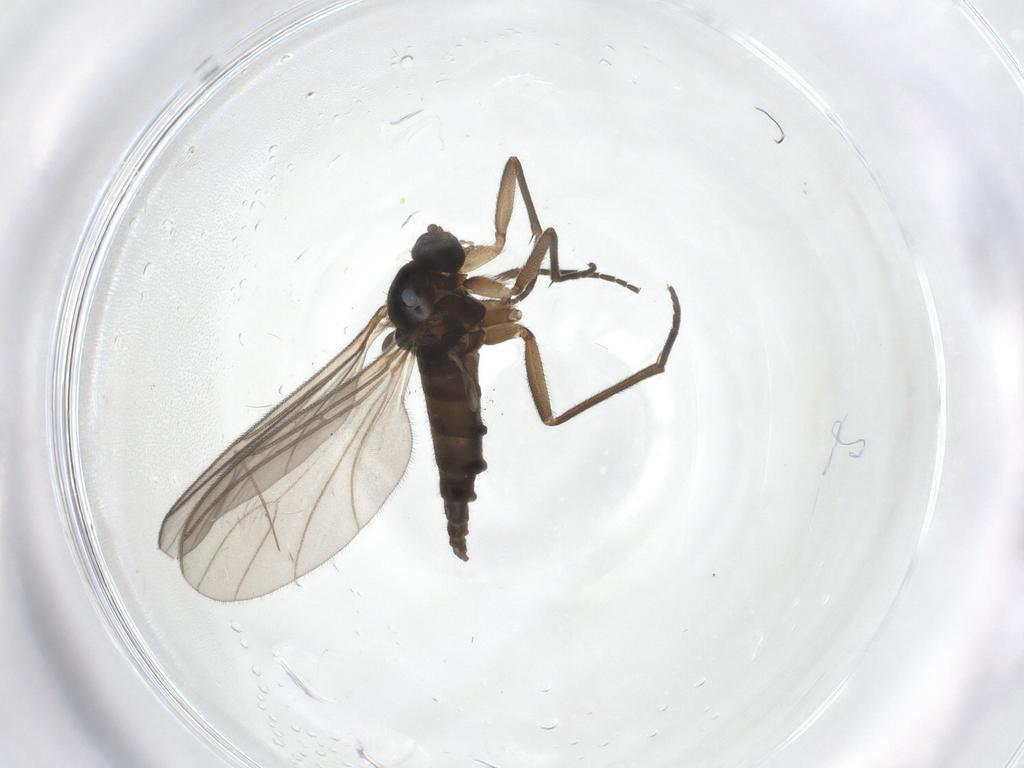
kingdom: Animalia
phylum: Arthropoda
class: Insecta
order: Diptera
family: Sciaridae
